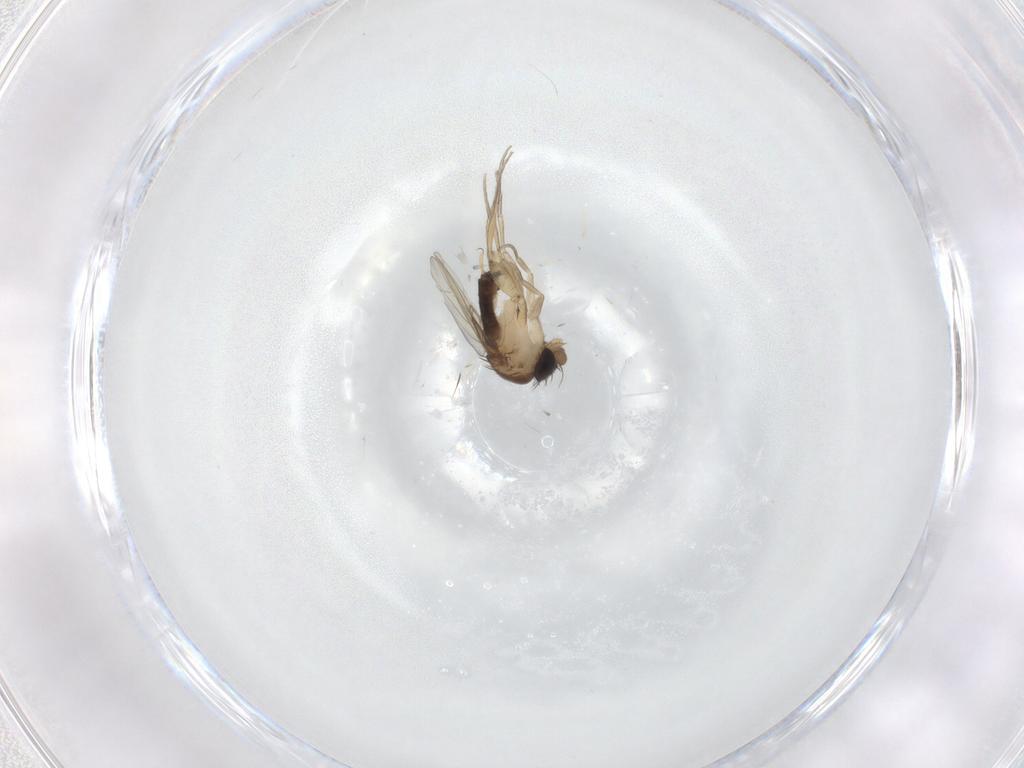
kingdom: Animalia
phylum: Arthropoda
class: Insecta
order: Diptera
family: Phoridae
